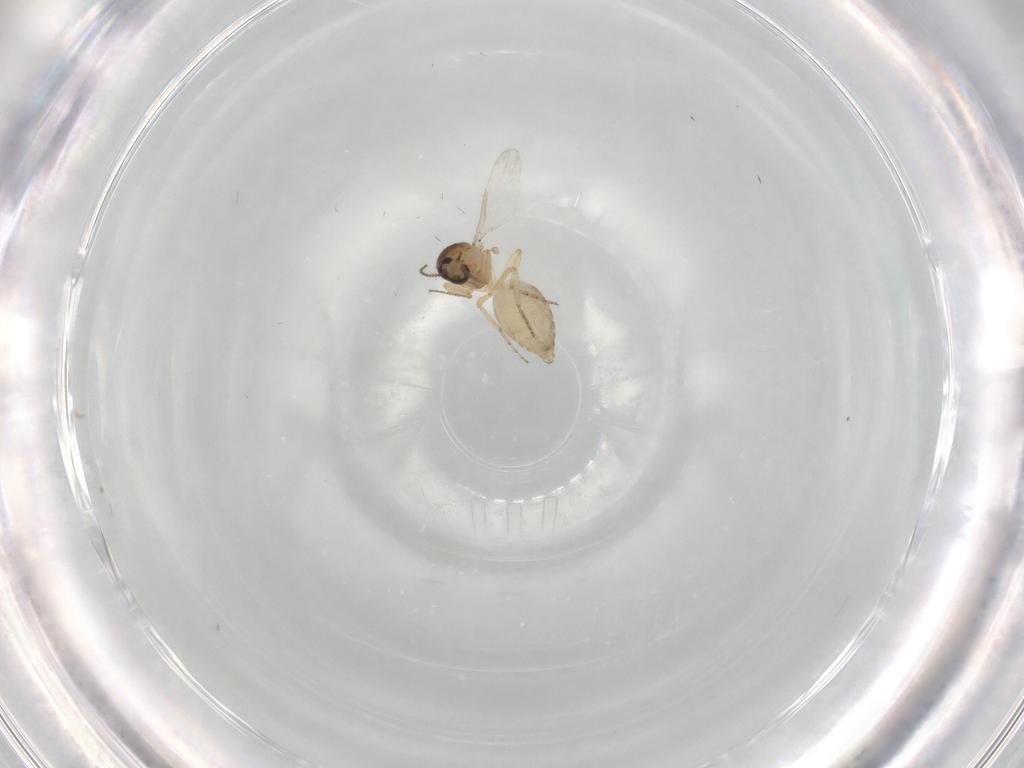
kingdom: Animalia
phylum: Arthropoda
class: Insecta
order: Diptera
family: Ceratopogonidae
